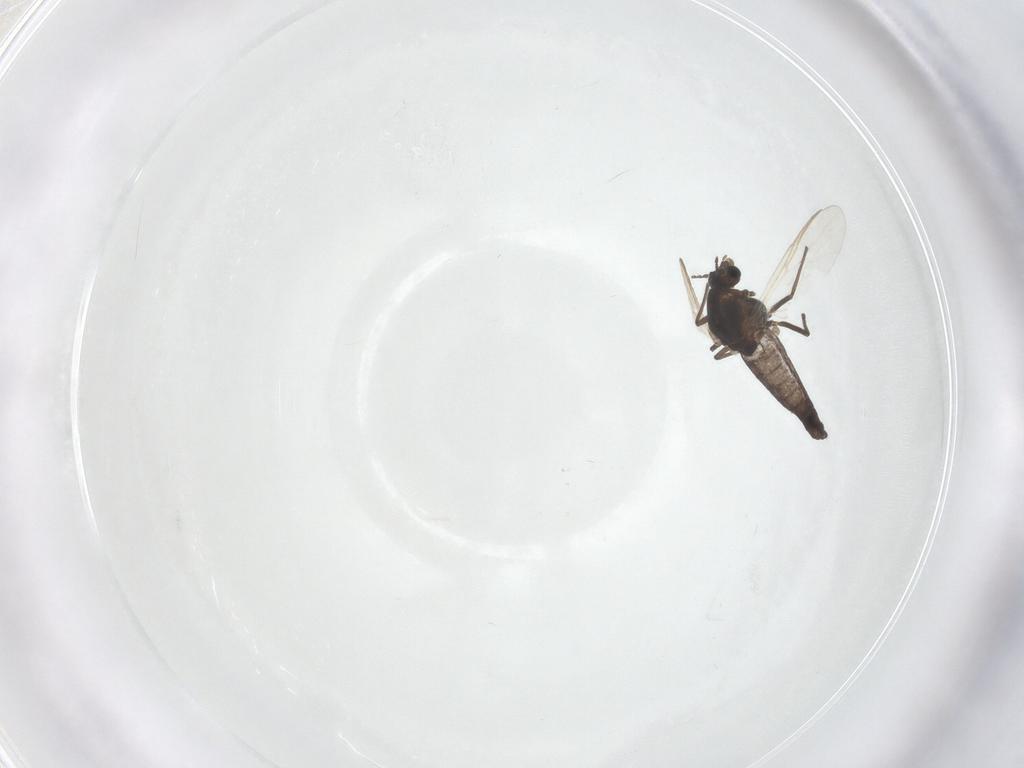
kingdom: Animalia
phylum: Arthropoda
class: Insecta
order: Diptera
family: Chironomidae
